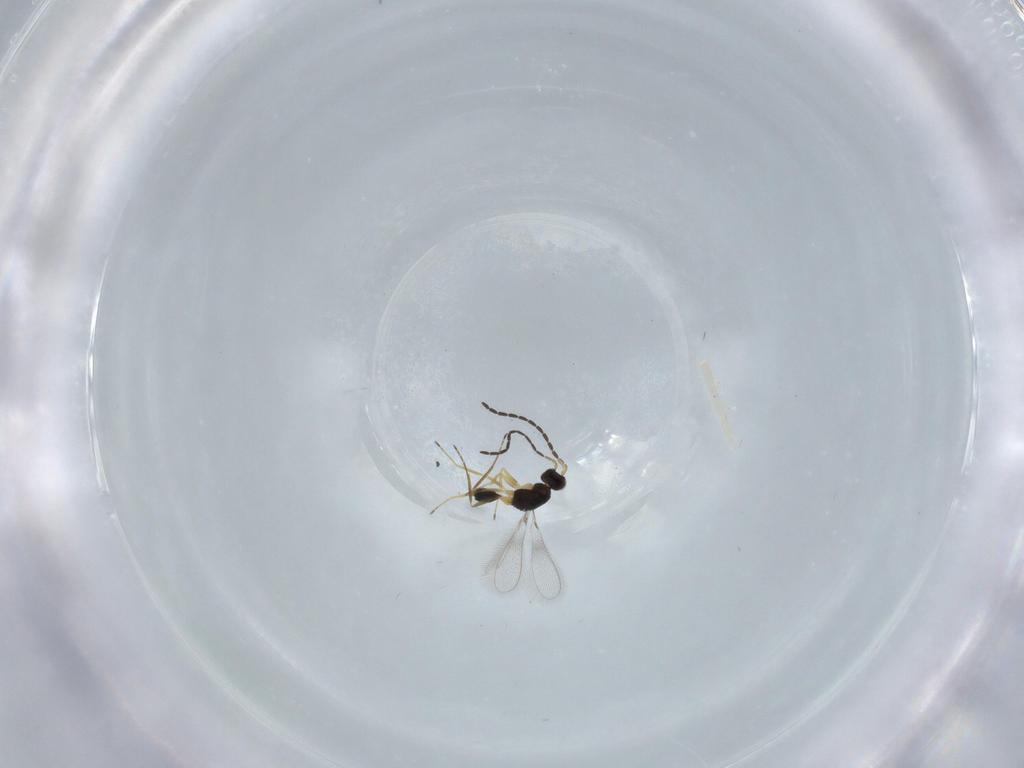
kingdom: Animalia
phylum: Arthropoda
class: Insecta
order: Hymenoptera
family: Mymaridae
